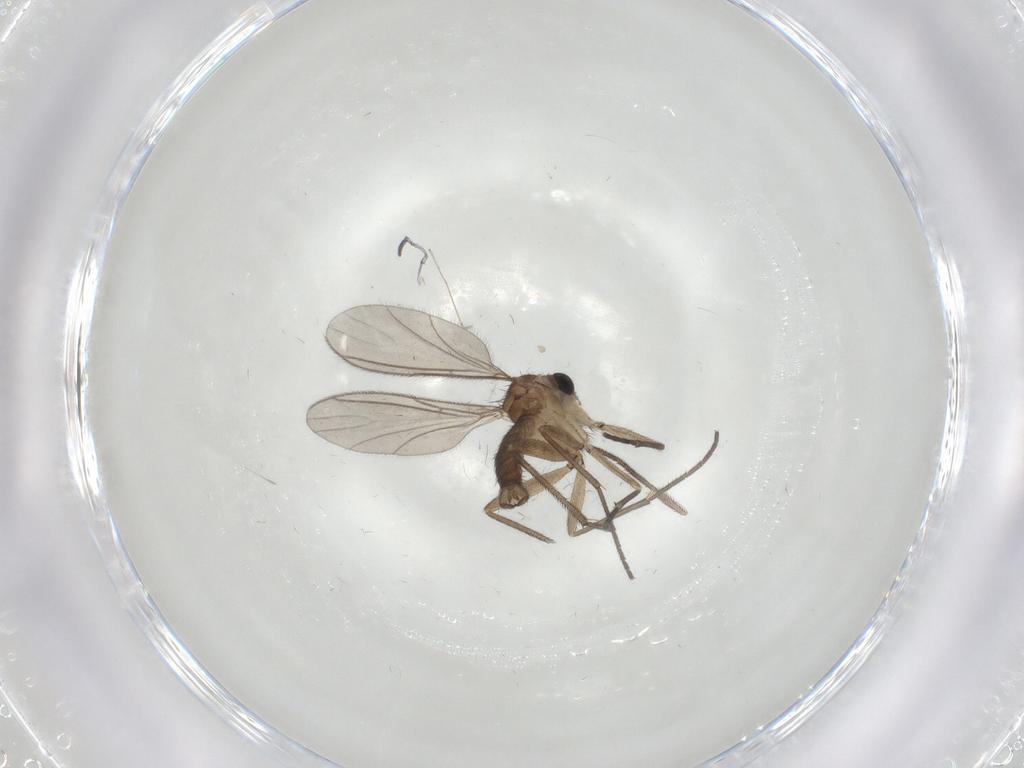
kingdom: Animalia
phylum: Arthropoda
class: Insecta
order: Diptera
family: Sciaridae
